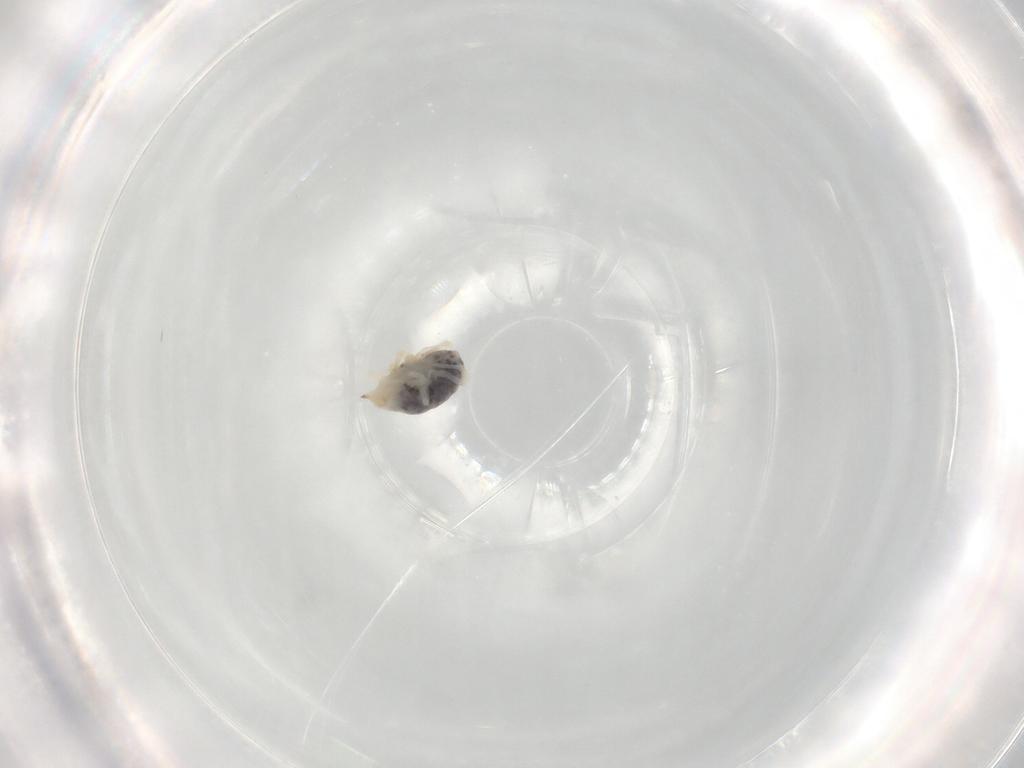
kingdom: Animalia
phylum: Arthropoda
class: Arachnida
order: Trombidiformes
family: Bdellidae
